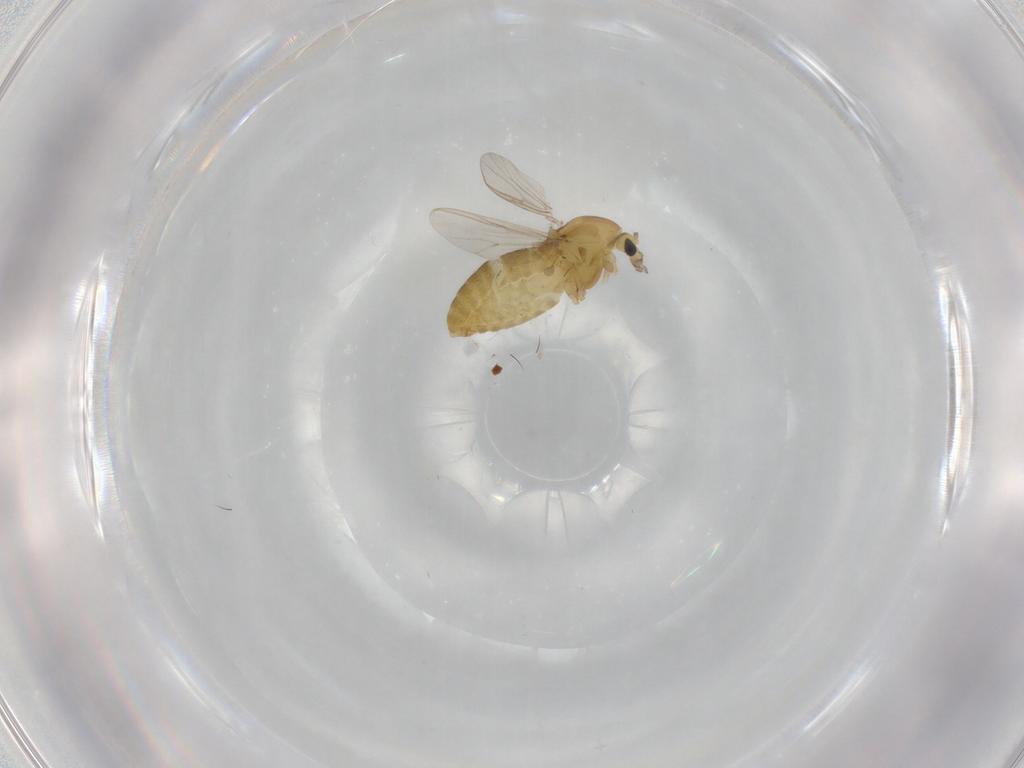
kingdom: Animalia
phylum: Arthropoda
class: Insecta
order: Diptera
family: Chironomidae
